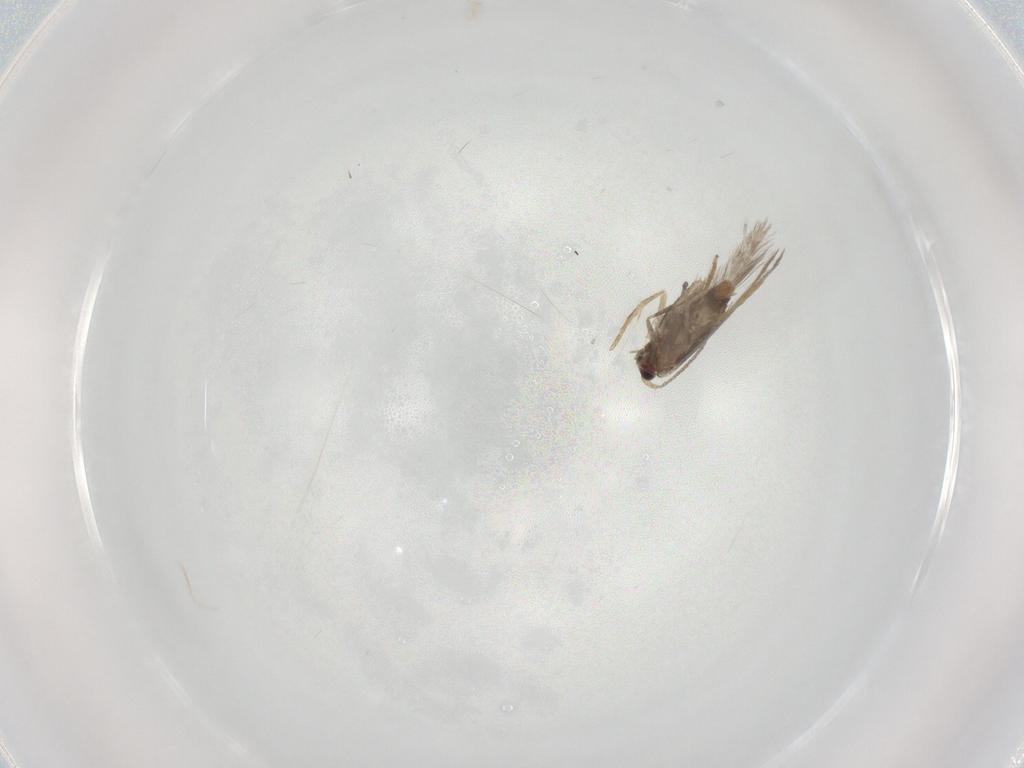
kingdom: Animalia
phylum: Arthropoda
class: Insecta
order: Lepidoptera
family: Nepticulidae
